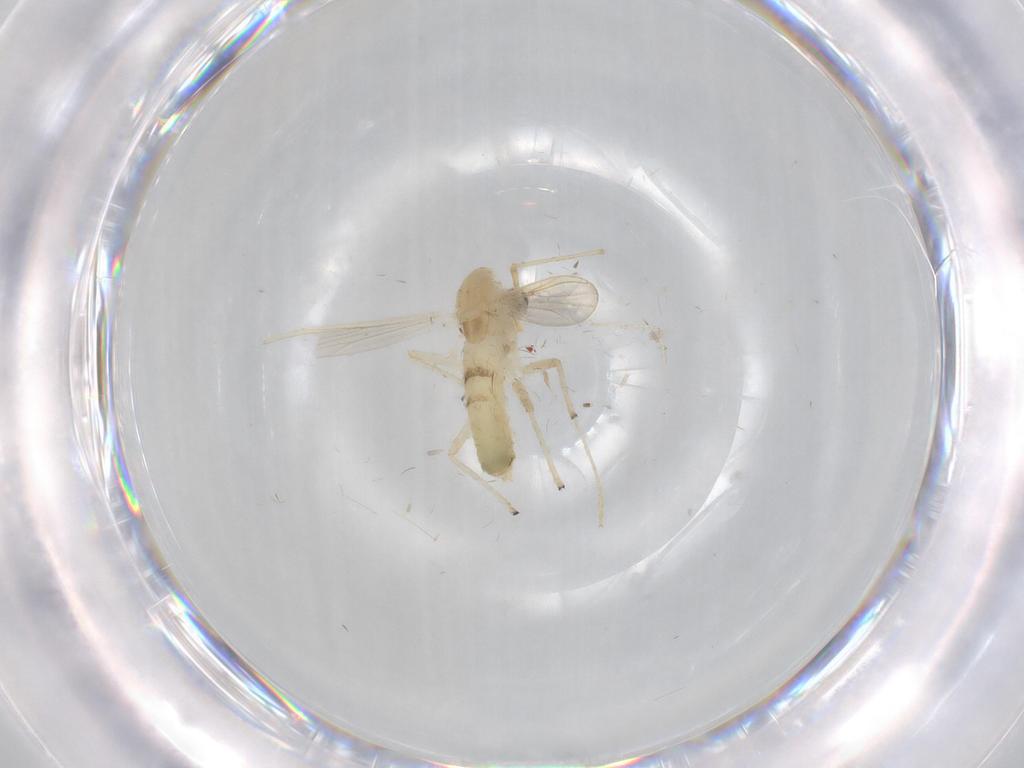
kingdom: Animalia
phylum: Arthropoda
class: Insecta
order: Diptera
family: Chironomidae
